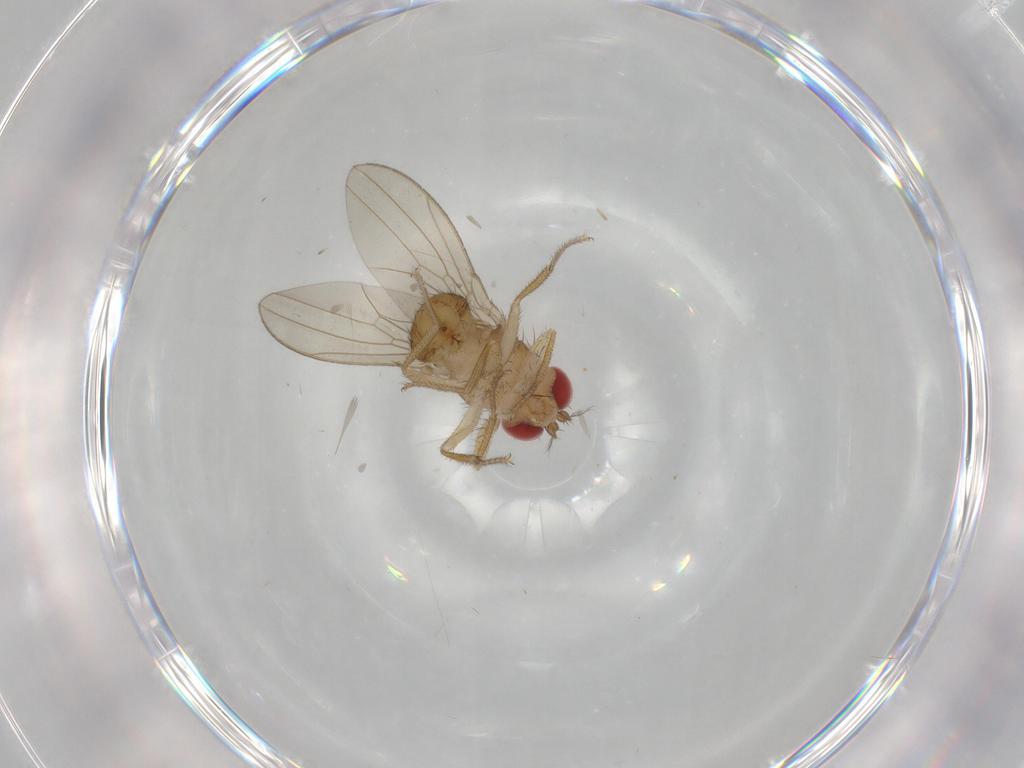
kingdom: Animalia
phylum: Arthropoda
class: Insecta
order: Diptera
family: Drosophilidae
